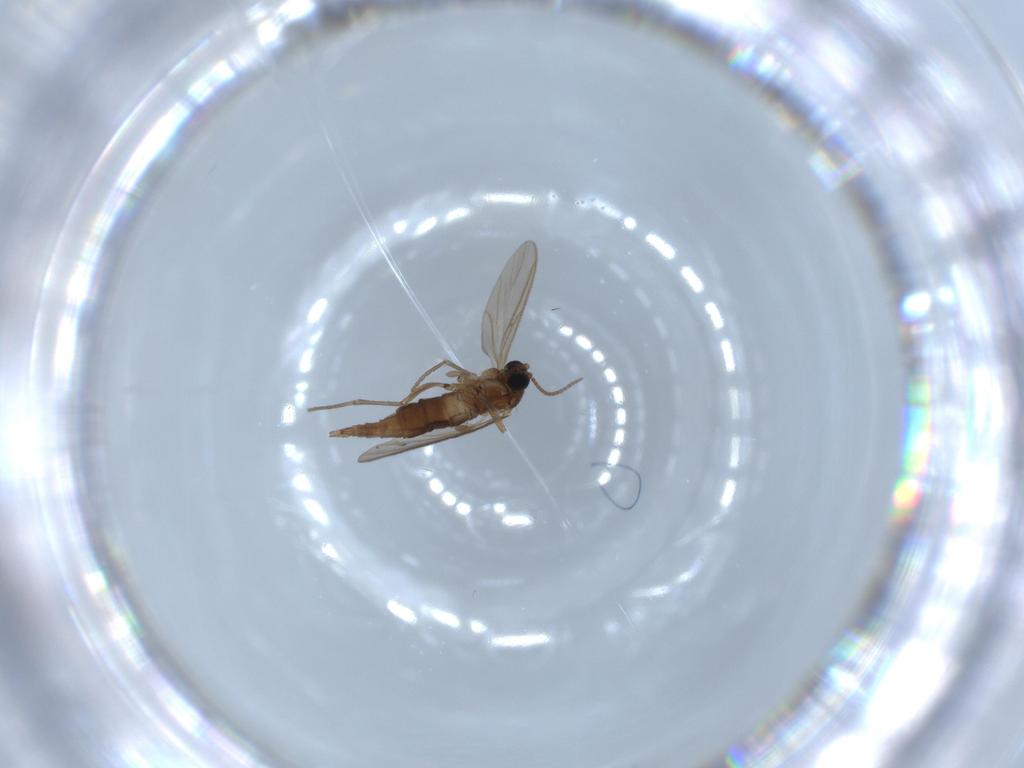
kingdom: Animalia
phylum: Arthropoda
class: Insecta
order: Diptera
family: Sciaridae
